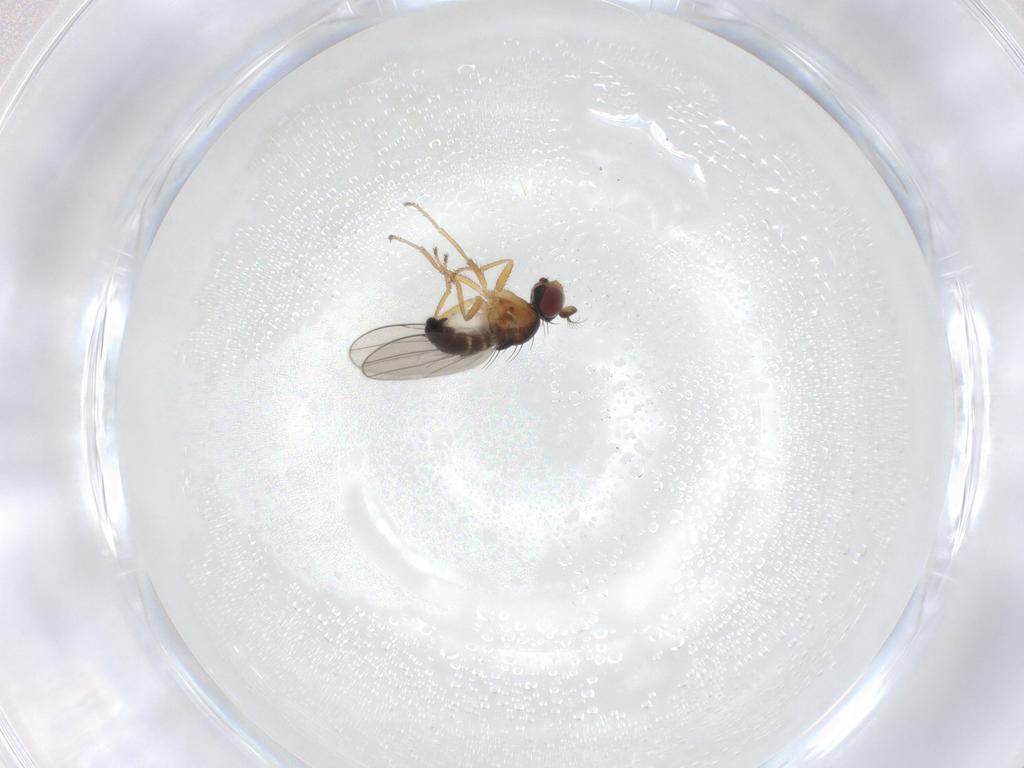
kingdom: Animalia
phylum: Arthropoda
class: Insecta
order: Diptera
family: Ephydridae
